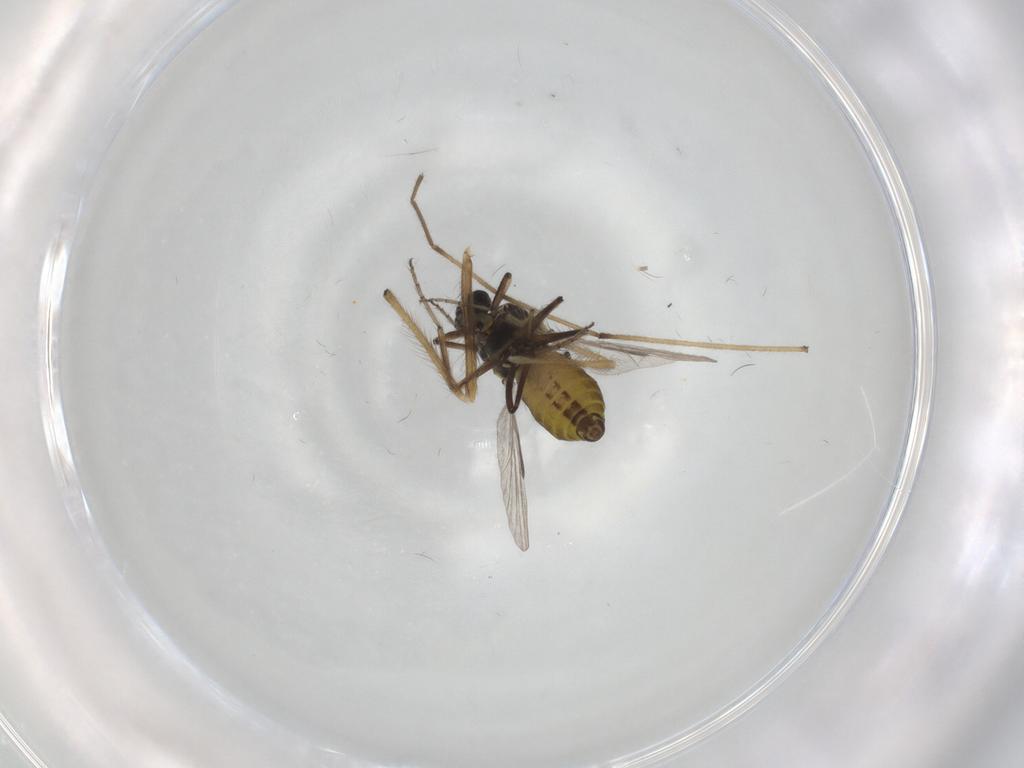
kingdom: Animalia
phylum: Arthropoda
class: Insecta
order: Diptera
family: Ceratopogonidae
